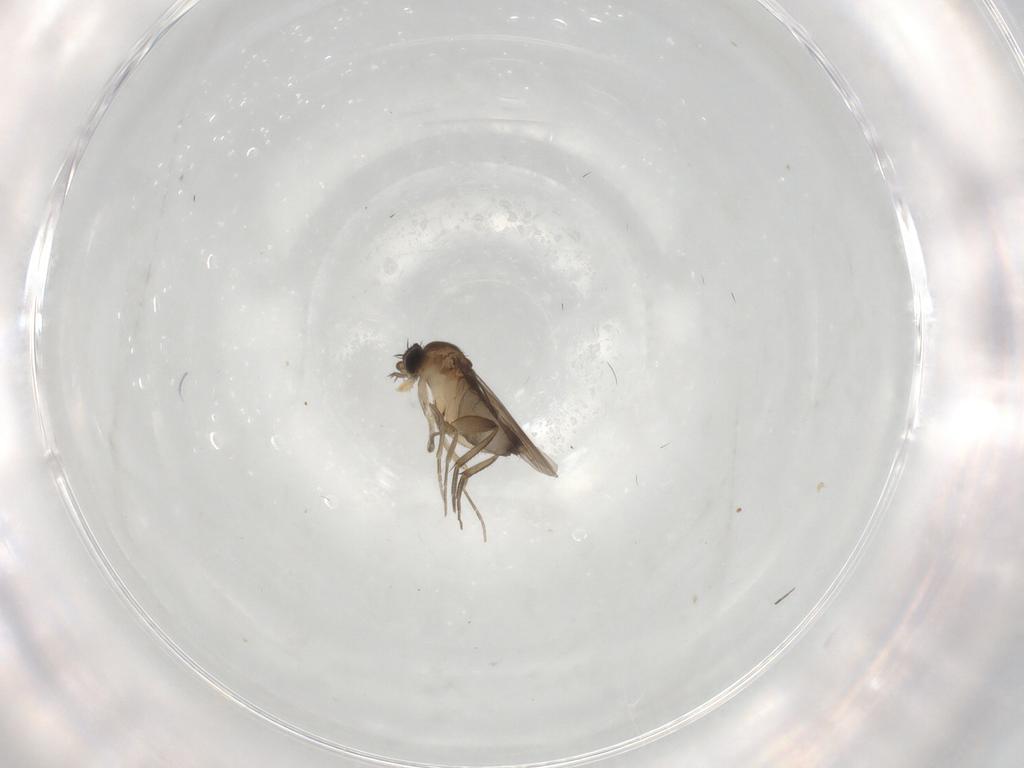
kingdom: Animalia
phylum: Arthropoda
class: Insecta
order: Diptera
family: Phoridae
